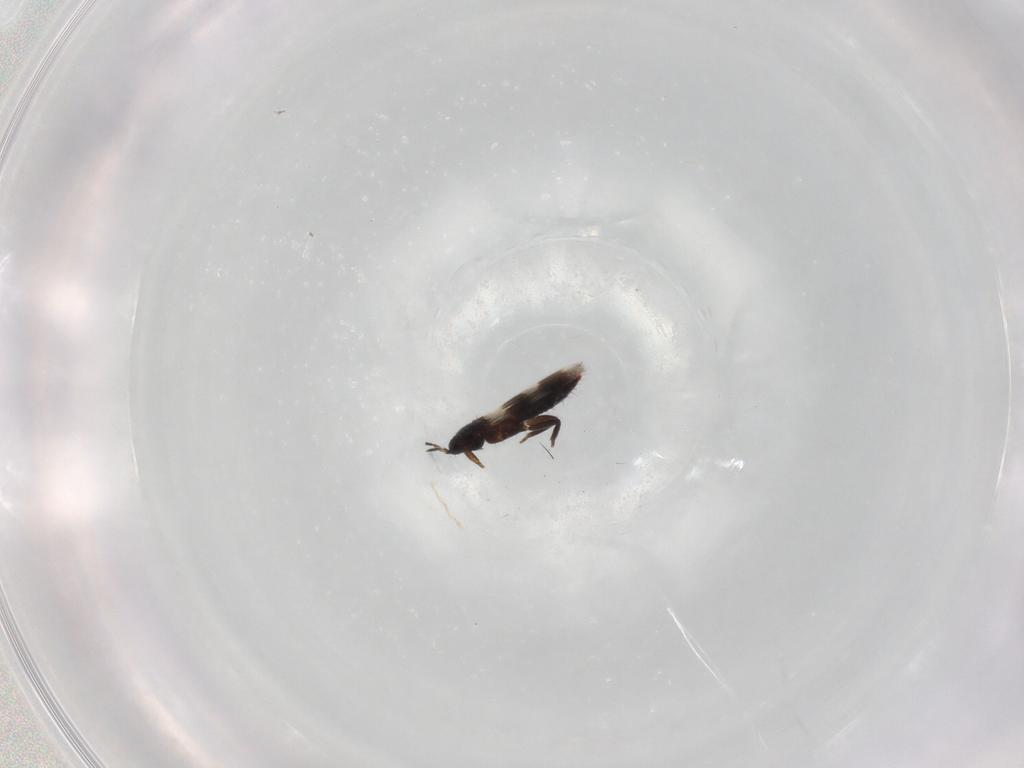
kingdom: Animalia
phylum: Arthropoda
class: Insecta
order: Thysanoptera
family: Aeolothripidae
